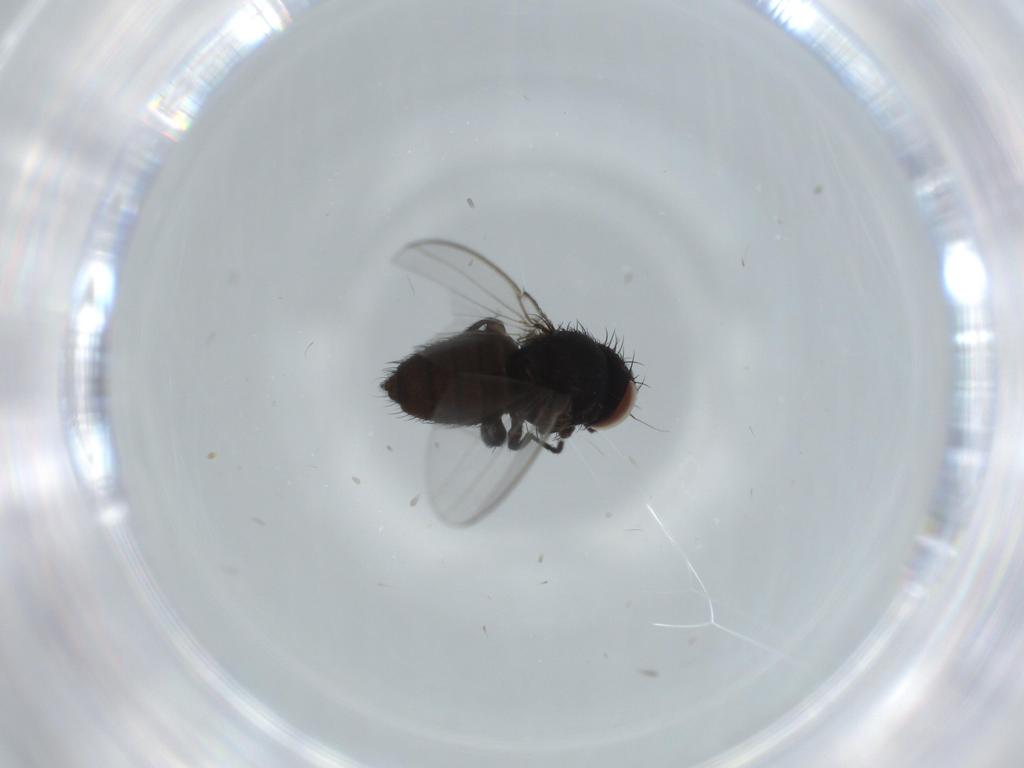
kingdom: Animalia
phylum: Arthropoda
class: Insecta
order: Diptera
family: Milichiidae
